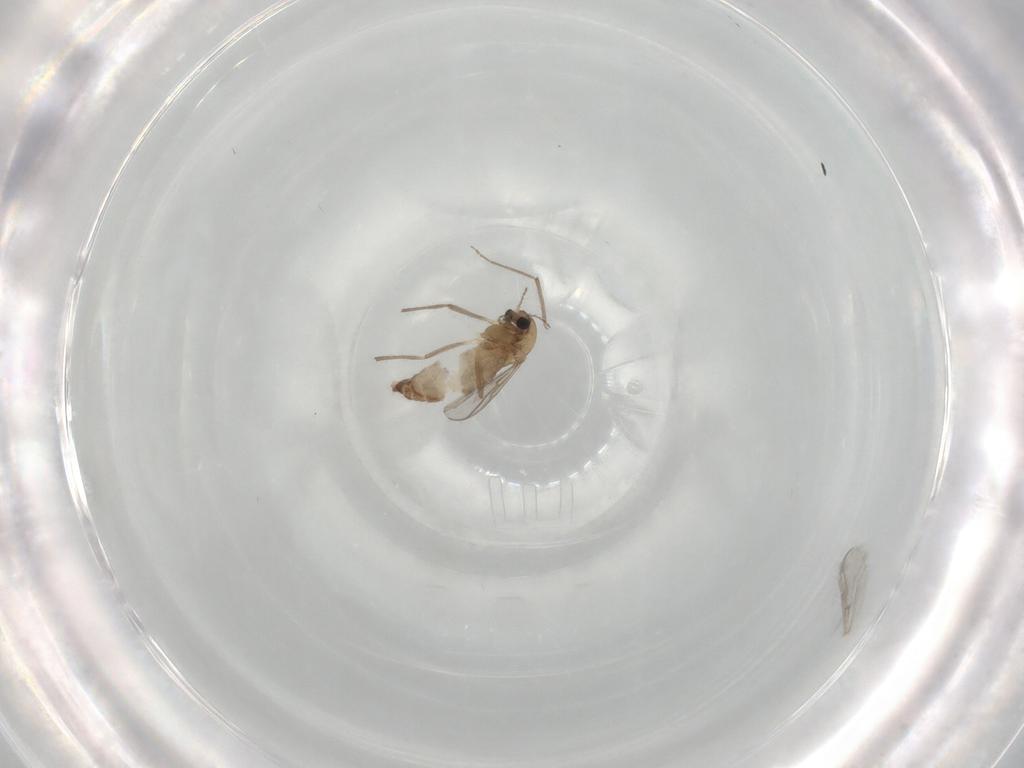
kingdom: Animalia
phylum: Arthropoda
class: Insecta
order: Diptera
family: Chironomidae
